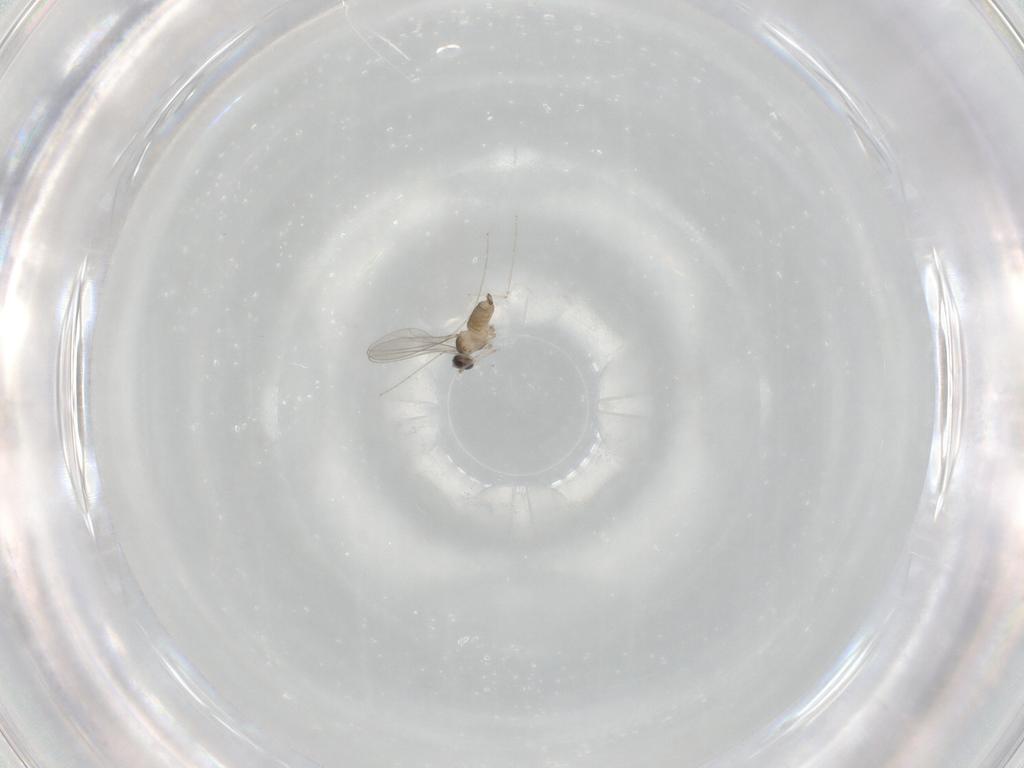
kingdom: Animalia
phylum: Arthropoda
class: Insecta
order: Diptera
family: Cecidomyiidae
